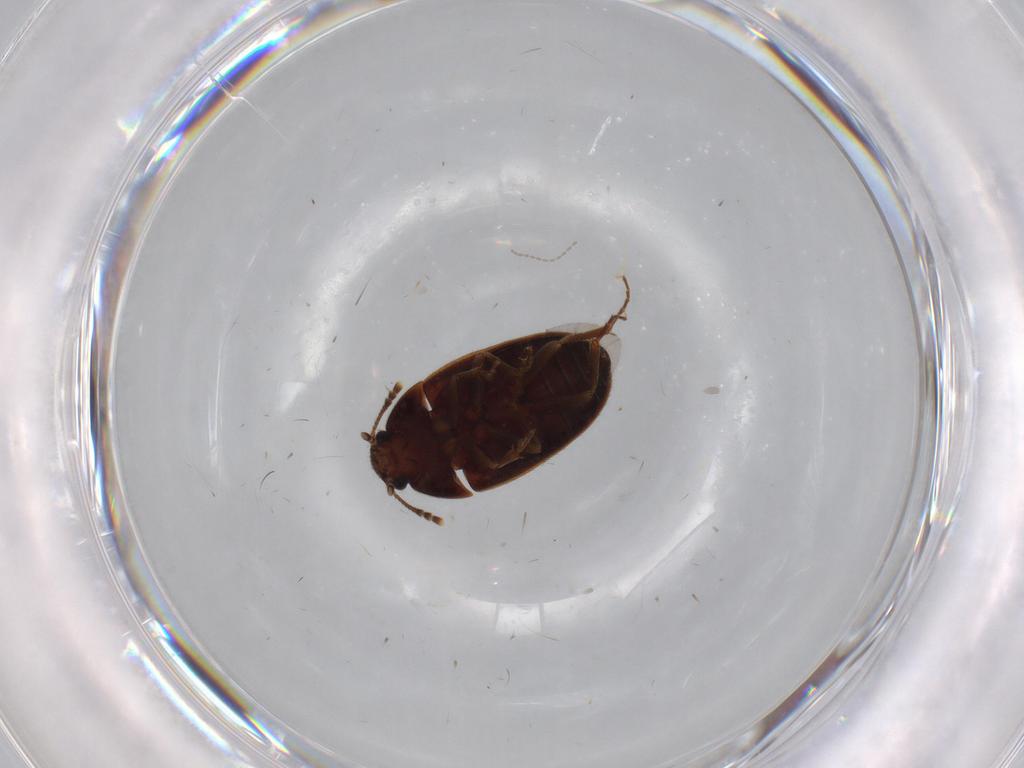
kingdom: Animalia
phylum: Arthropoda
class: Insecta
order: Coleoptera
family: Mycetophagidae
